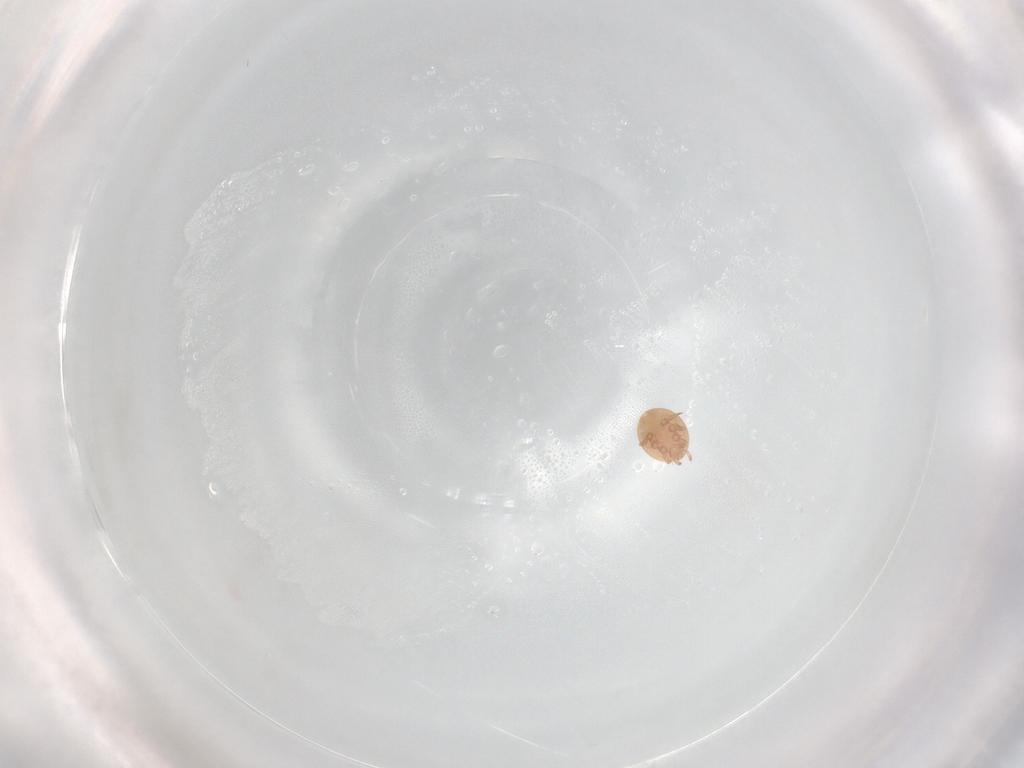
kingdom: Animalia
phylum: Arthropoda
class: Arachnida
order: Mesostigmata
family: Trematuridae
